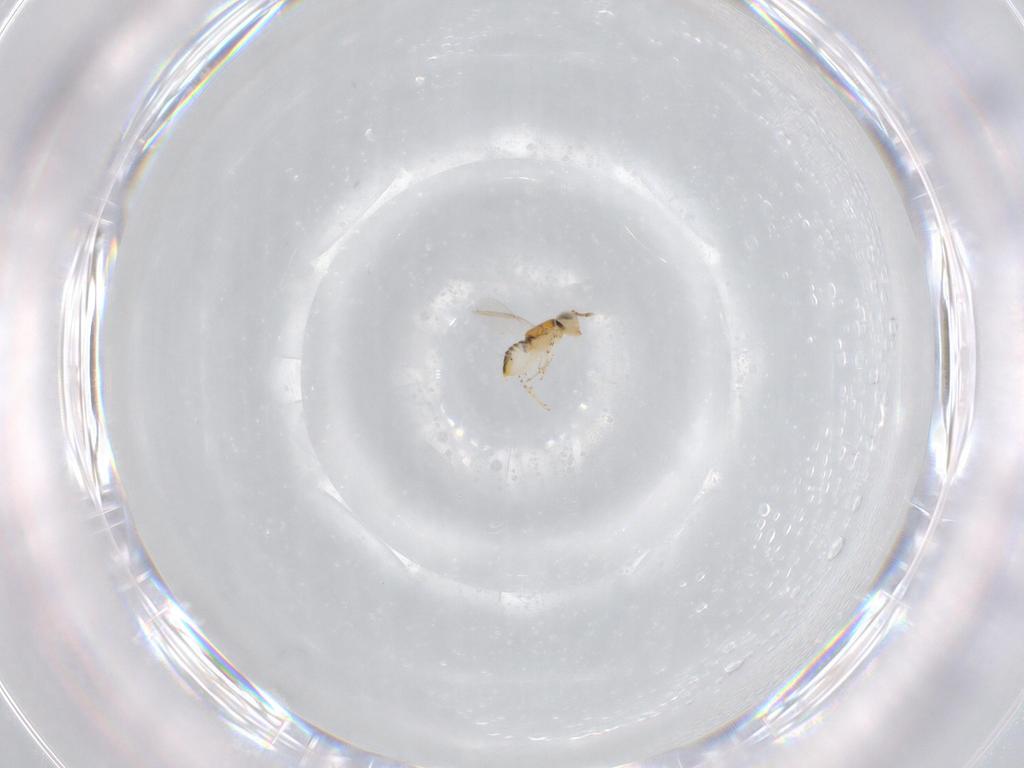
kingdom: Animalia
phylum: Arthropoda
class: Insecta
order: Hymenoptera
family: Encyrtidae
